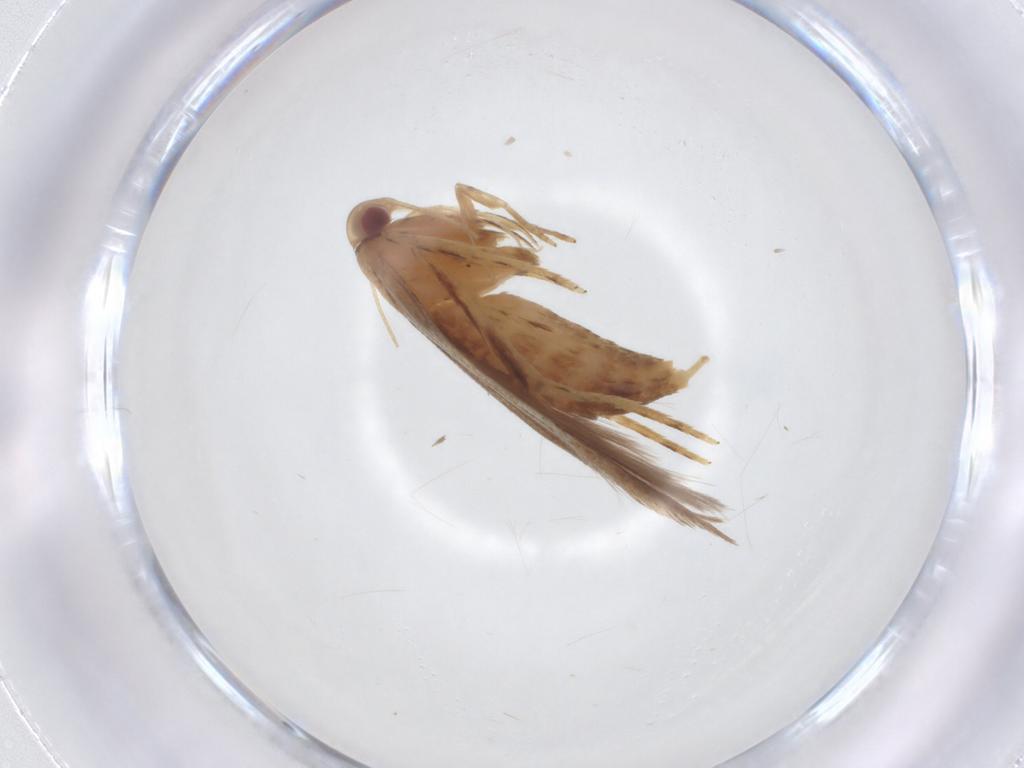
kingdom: Animalia
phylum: Arthropoda
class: Insecta
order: Lepidoptera
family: Cosmopterigidae
